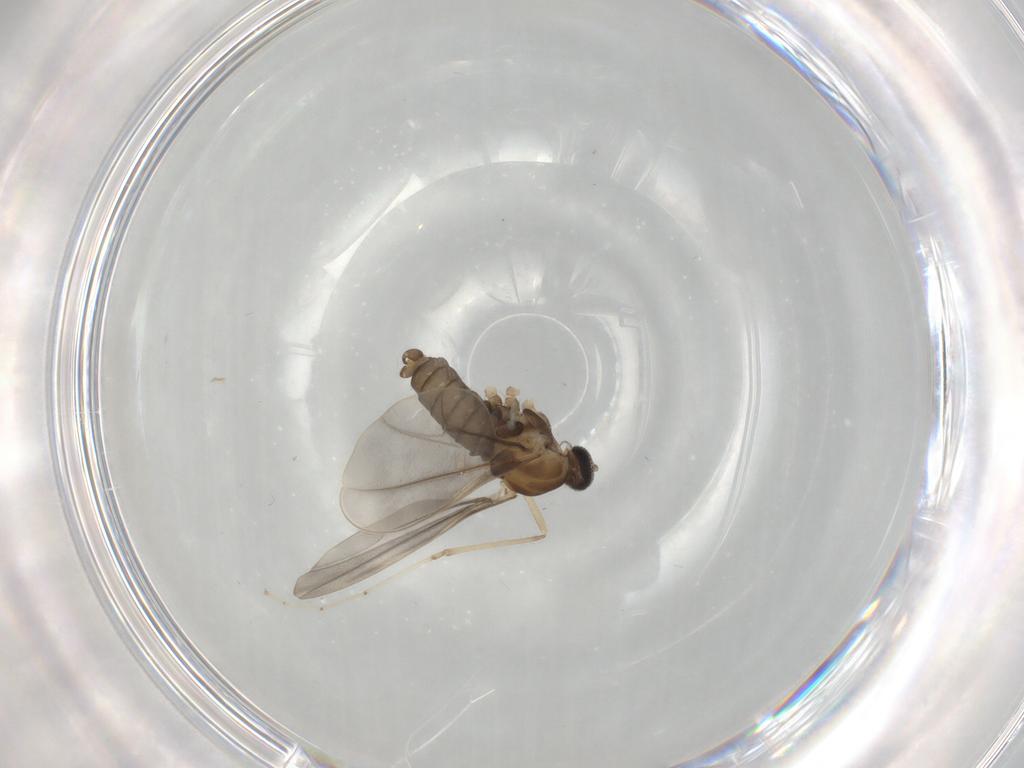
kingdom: Animalia
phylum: Arthropoda
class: Insecta
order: Diptera
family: Cecidomyiidae
